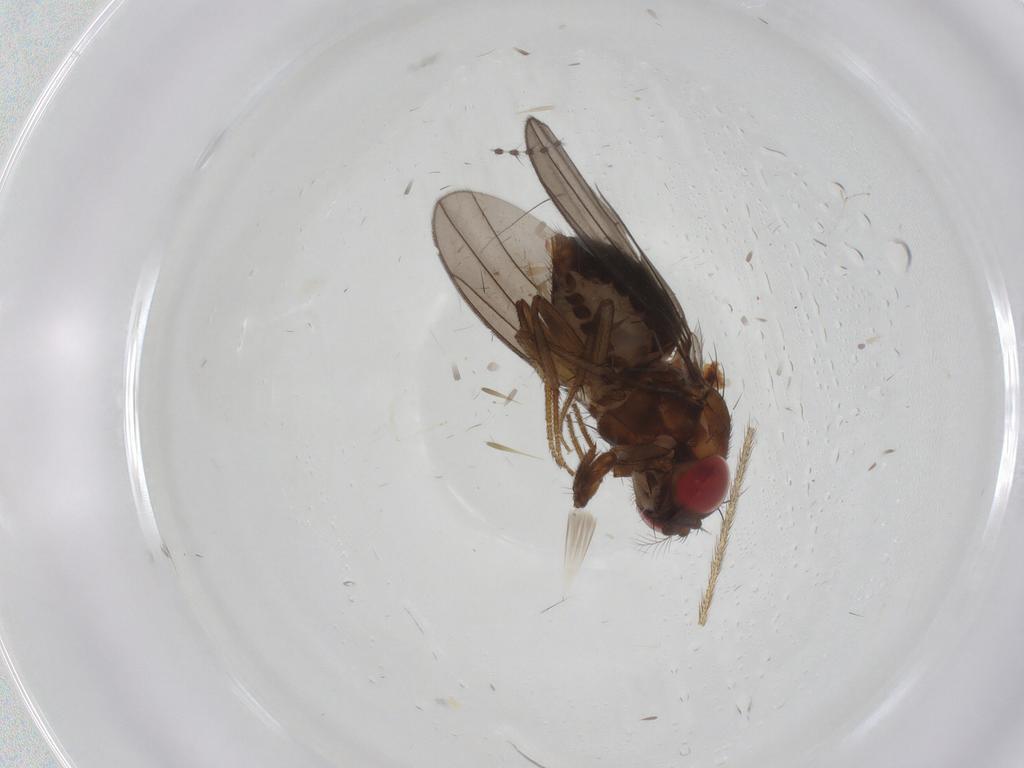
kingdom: Animalia
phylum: Arthropoda
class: Insecta
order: Diptera
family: Drosophilidae
